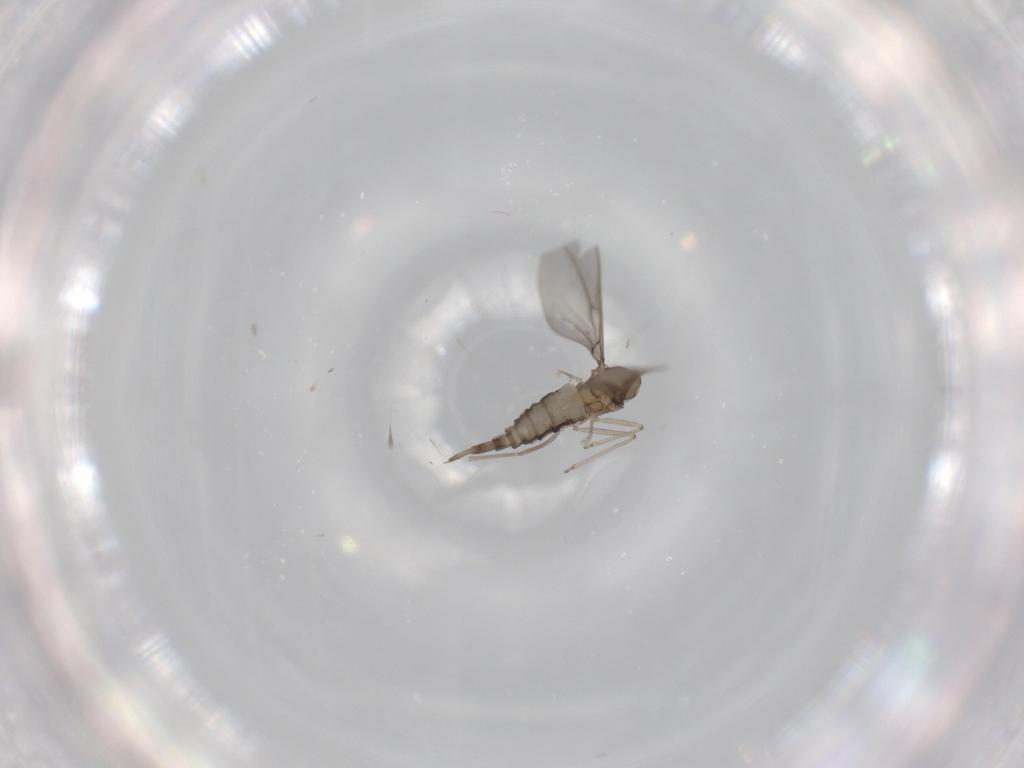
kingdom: Animalia
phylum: Arthropoda
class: Insecta
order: Diptera
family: Cecidomyiidae
